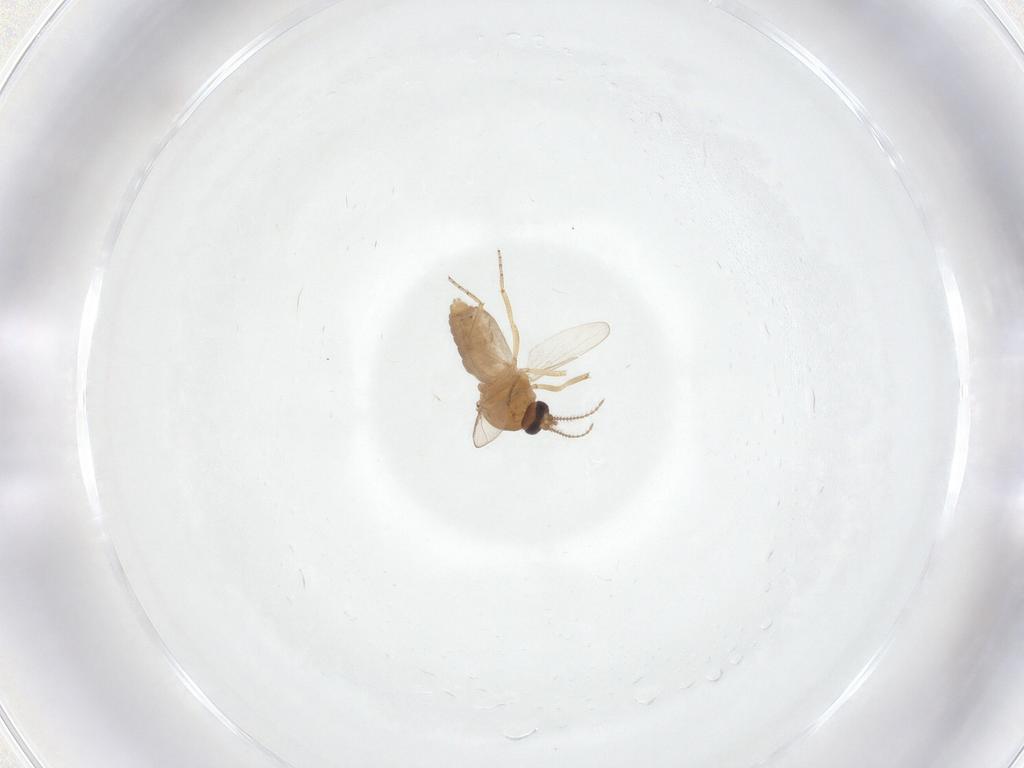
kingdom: Animalia
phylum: Arthropoda
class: Insecta
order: Diptera
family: Ceratopogonidae
